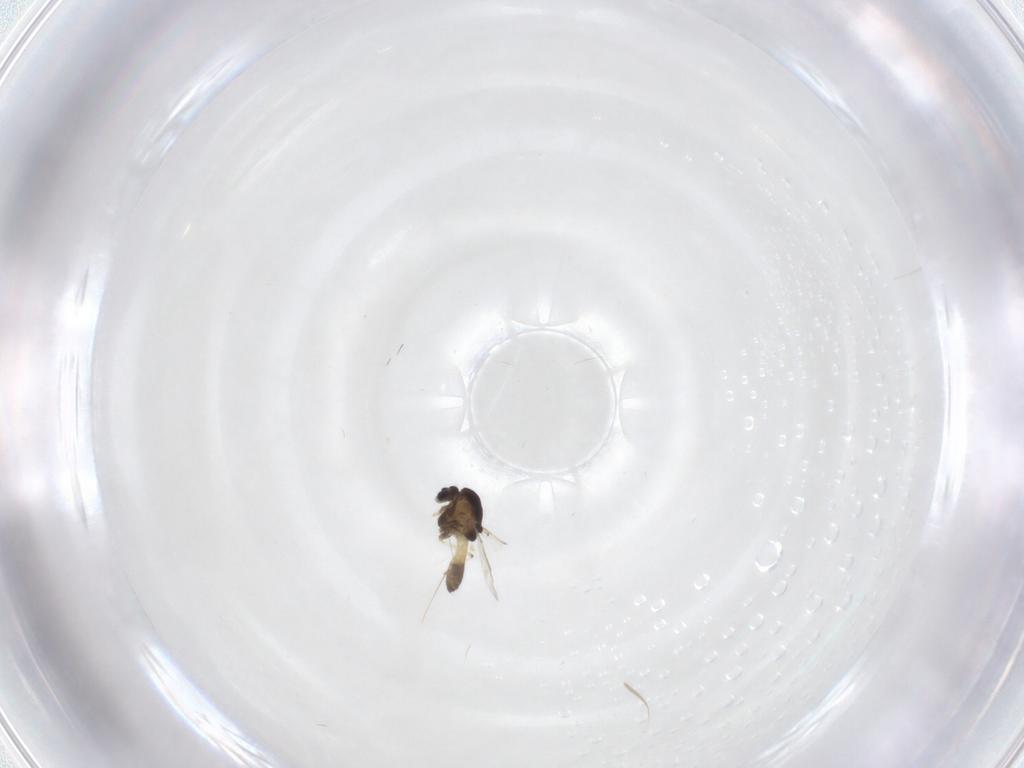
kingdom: Animalia
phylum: Arthropoda
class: Insecta
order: Diptera
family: Chironomidae
